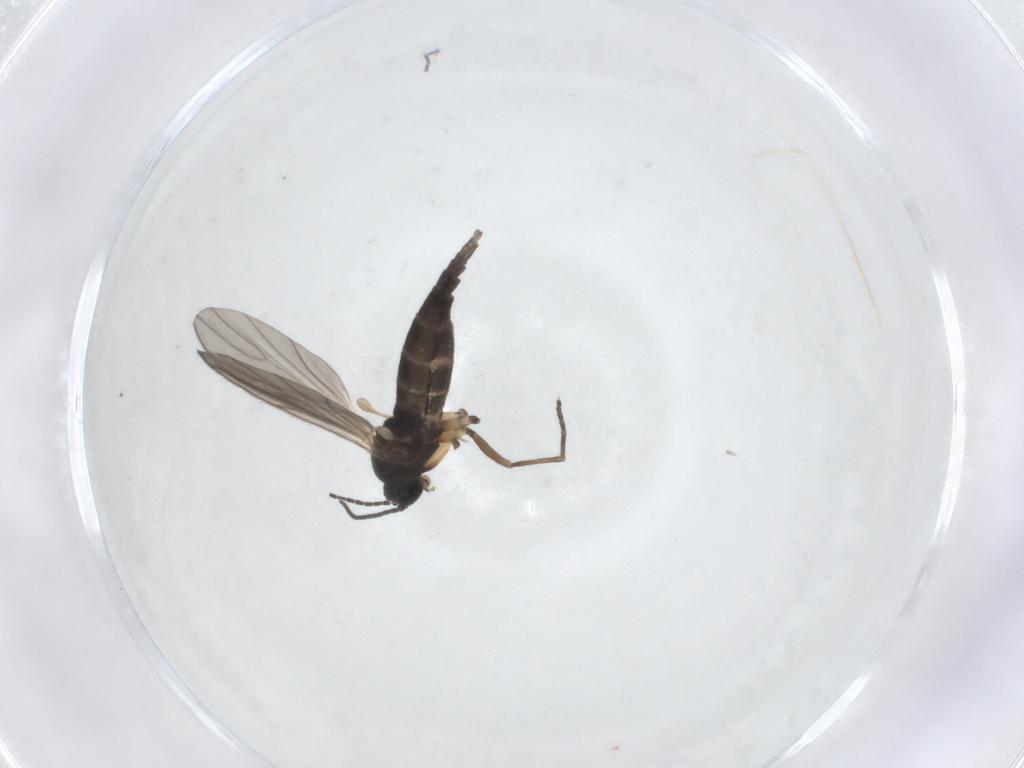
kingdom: Animalia
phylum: Arthropoda
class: Insecta
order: Diptera
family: Sciaridae
